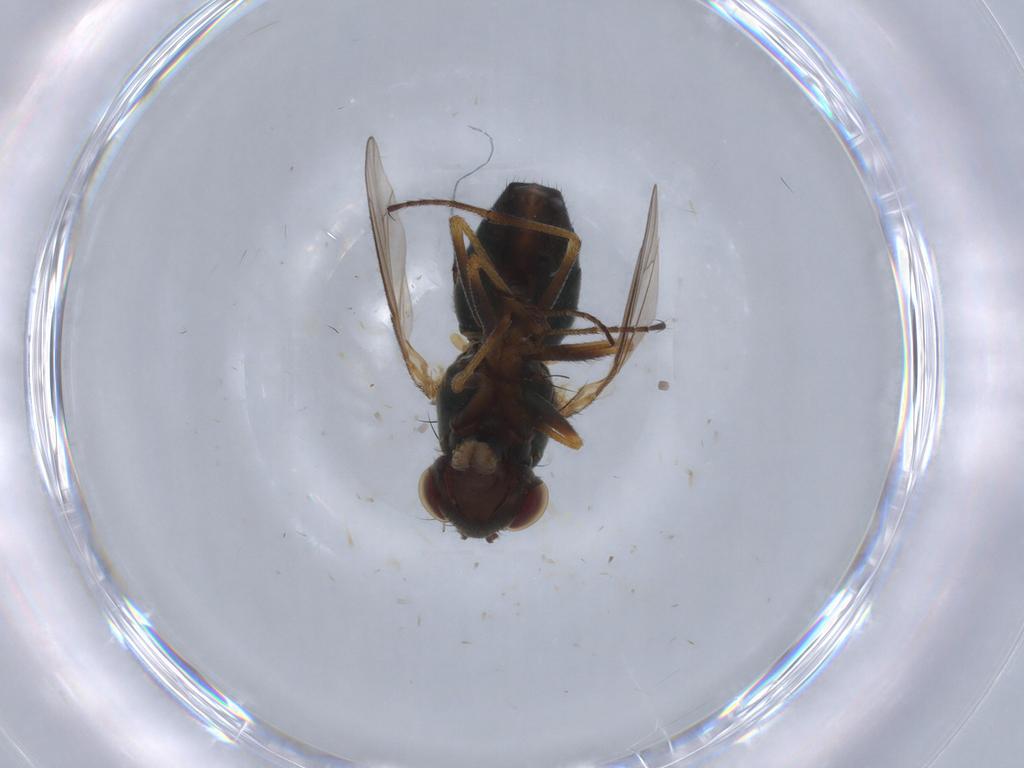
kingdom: Animalia
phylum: Arthropoda
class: Insecta
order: Diptera
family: Ephydridae
